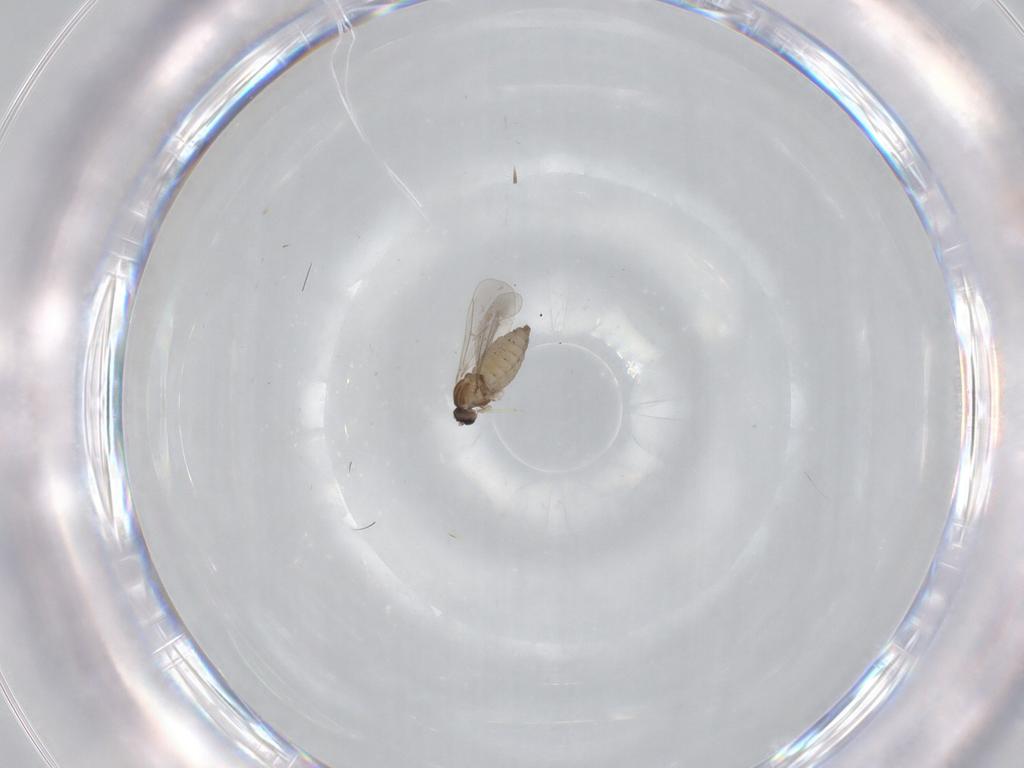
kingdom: Animalia
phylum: Arthropoda
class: Insecta
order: Diptera
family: Cecidomyiidae
